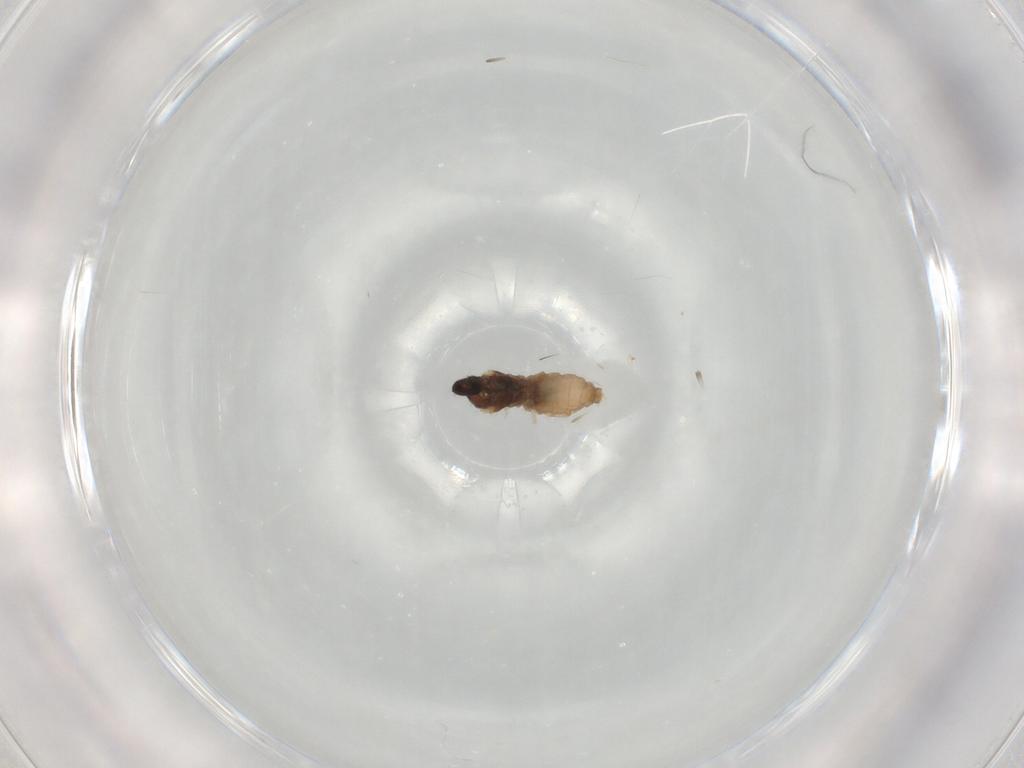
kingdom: Animalia
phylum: Arthropoda
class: Insecta
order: Diptera
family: Cecidomyiidae
